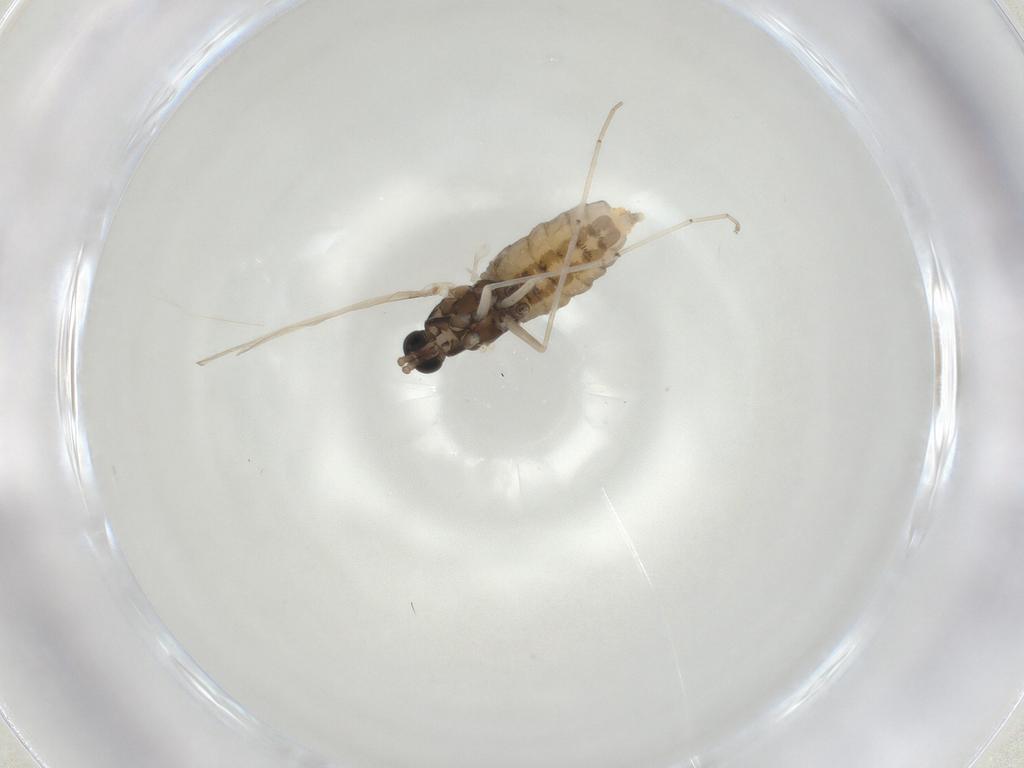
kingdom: Animalia
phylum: Arthropoda
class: Insecta
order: Diptera
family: Cecidomyiidae
